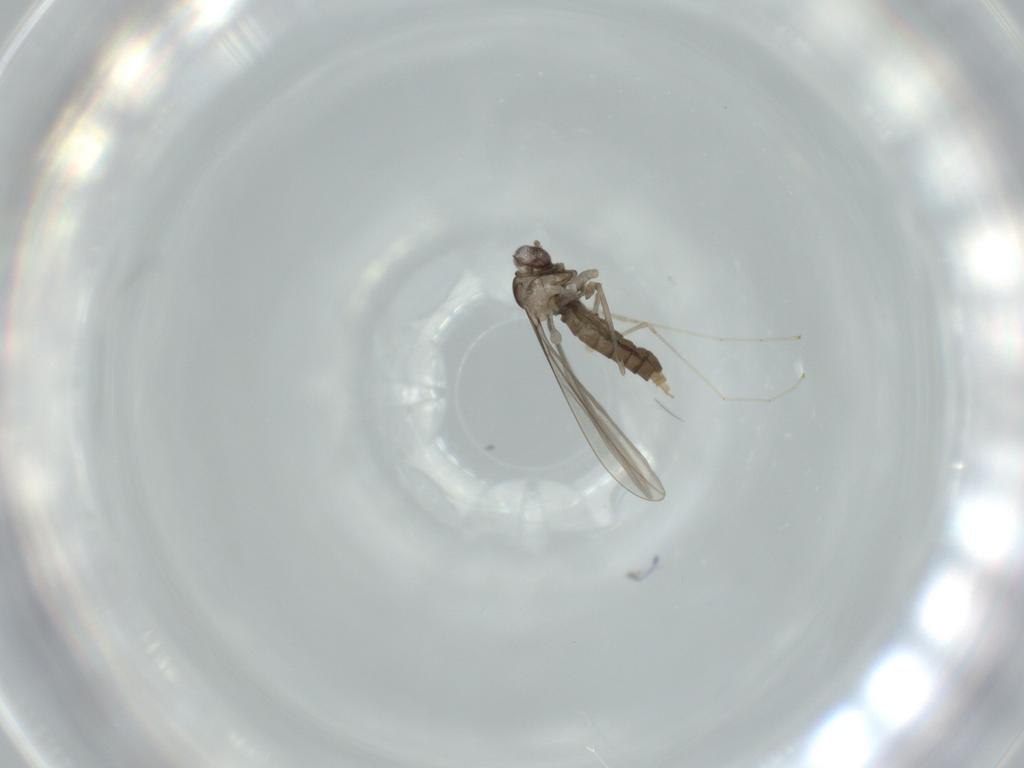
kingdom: Animalia
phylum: Arthropoda
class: Insecta
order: Diptera
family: Cecidomyiidae
